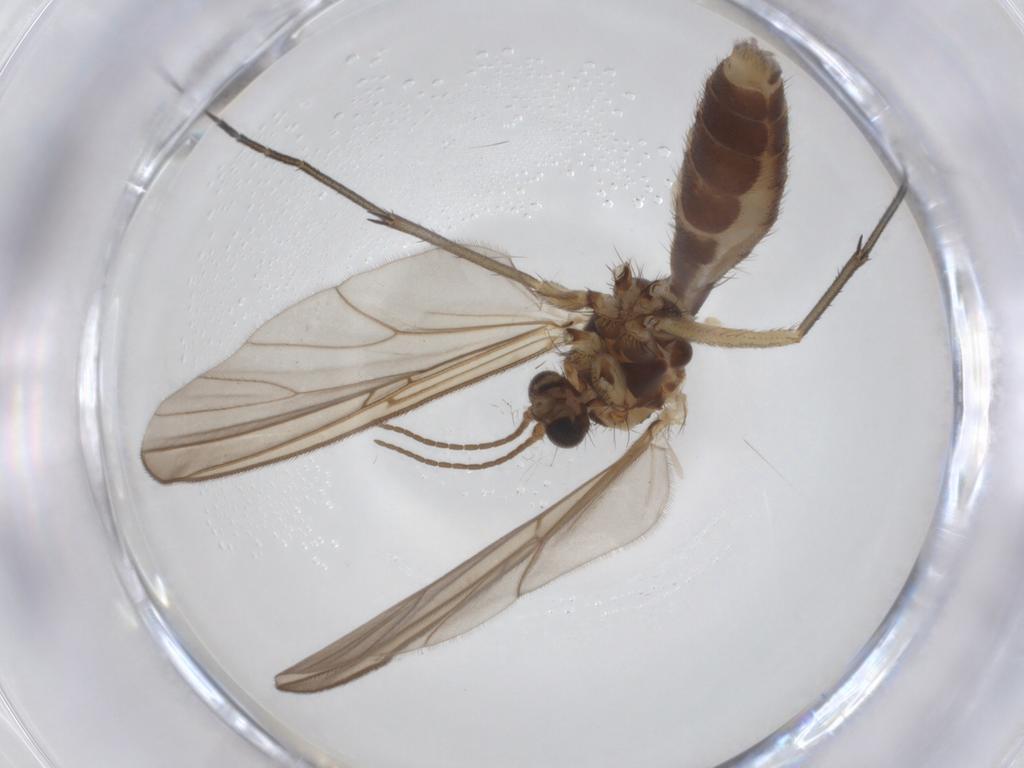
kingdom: Animalia
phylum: Arthropoda
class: Insecta
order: Diptera
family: Mycetophilidae
